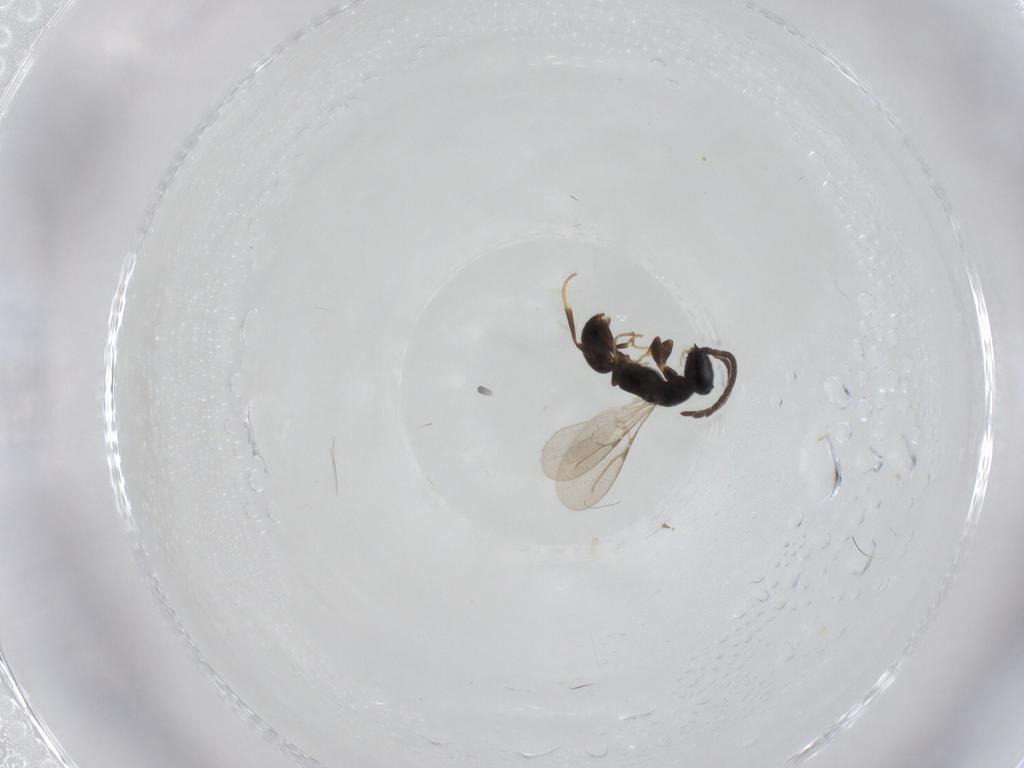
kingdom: Animalia
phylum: Arthropoda
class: Insecta
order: Hymenoptera
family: Bethylidae
